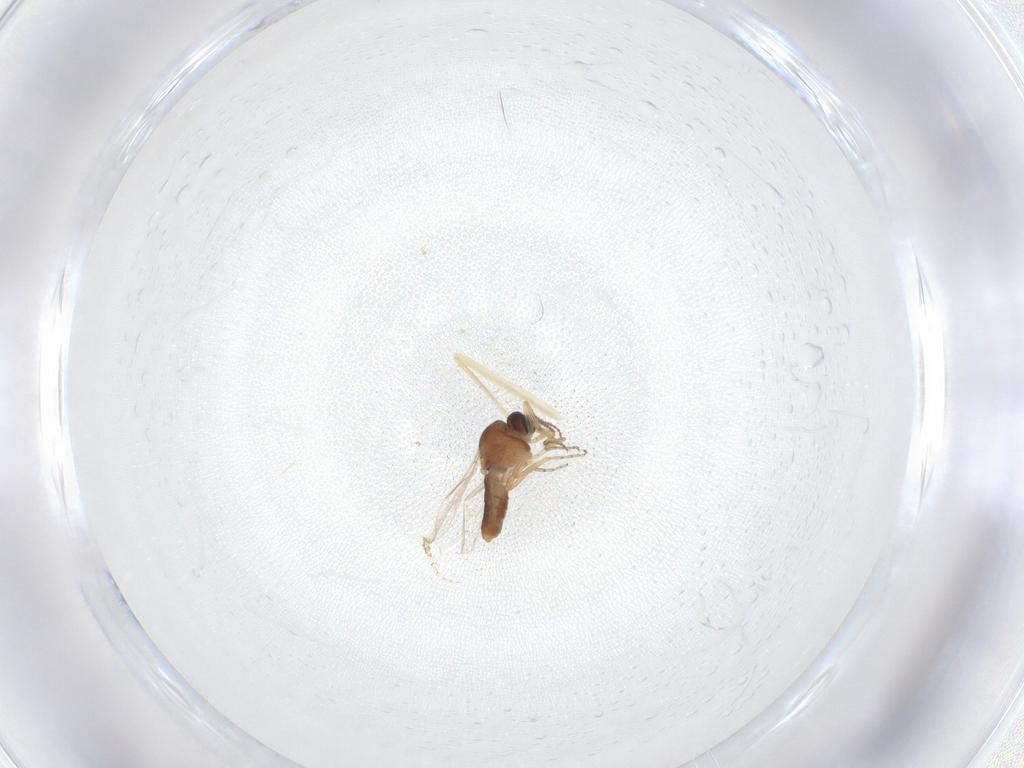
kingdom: Animalia
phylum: Arthropoda
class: Insecta
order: Diptera
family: Ceratopogonidae
